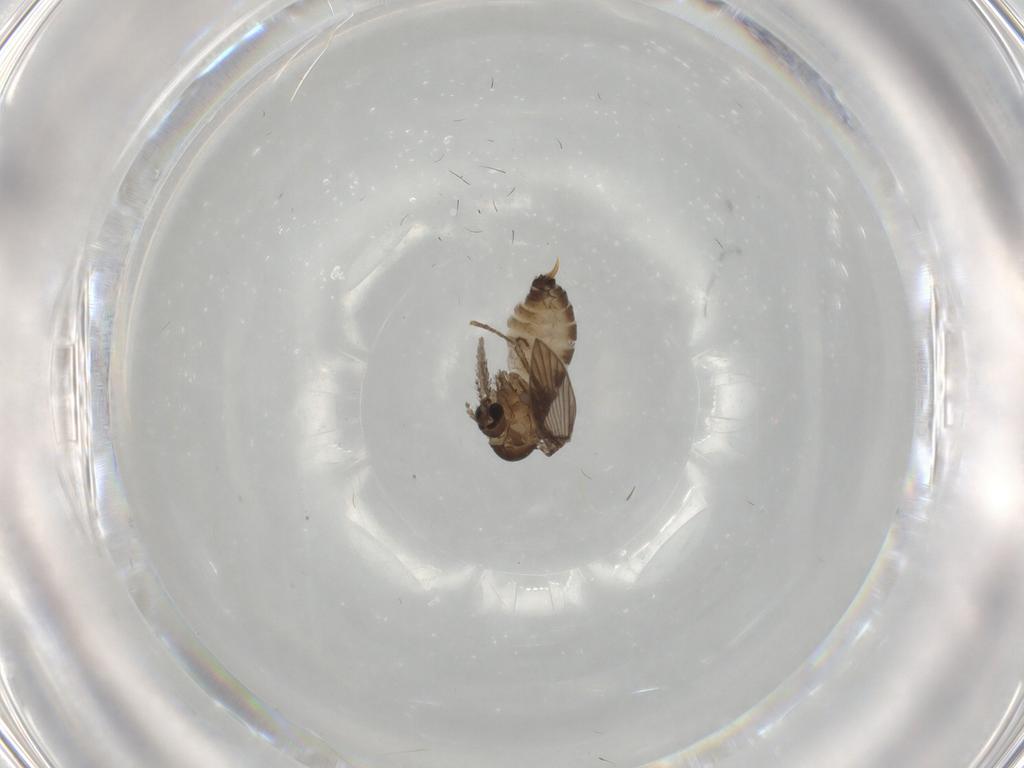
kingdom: Animalia
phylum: Arthropoda
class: Insecta
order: Diptera
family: Psychodidae
